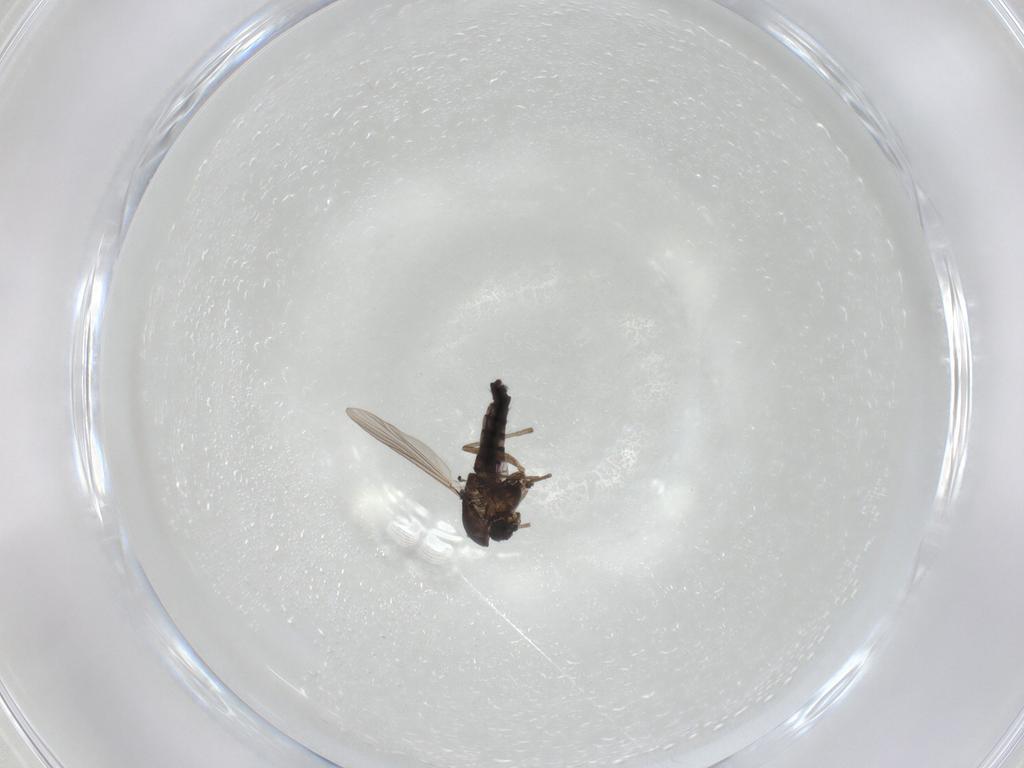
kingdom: Animalia
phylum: Arthropoda
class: Insecta
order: Diptera
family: Chironomidae
